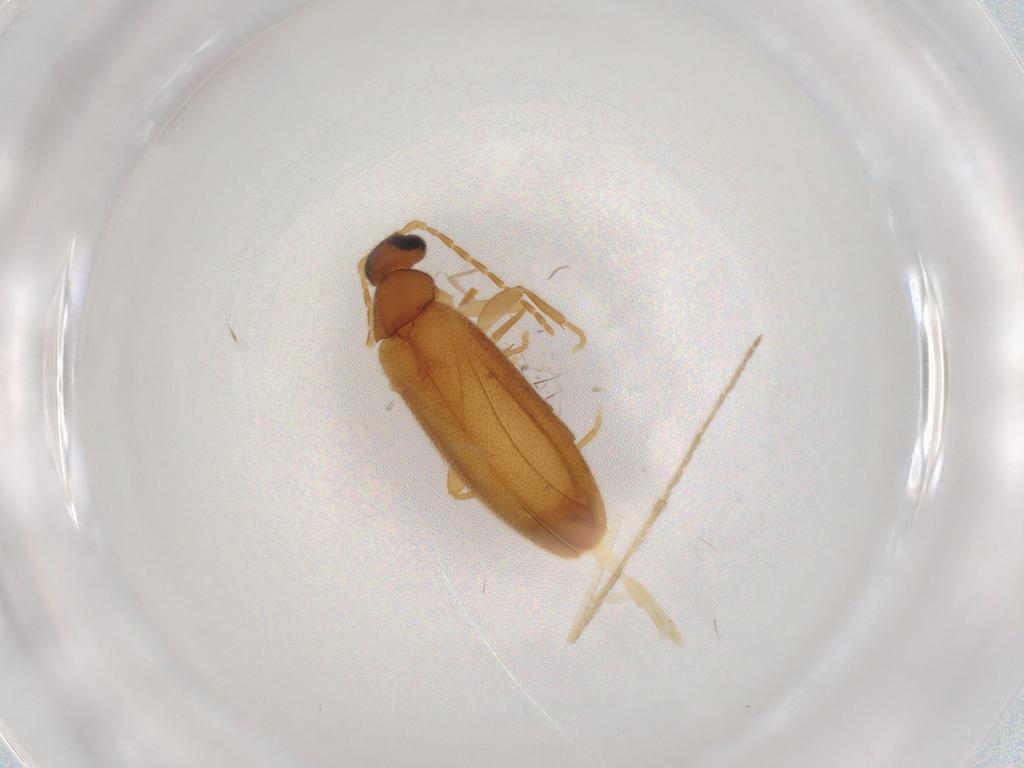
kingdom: Animalia
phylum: Arthropoda
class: Insecta
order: Coleoptera
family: Scraptiidae
